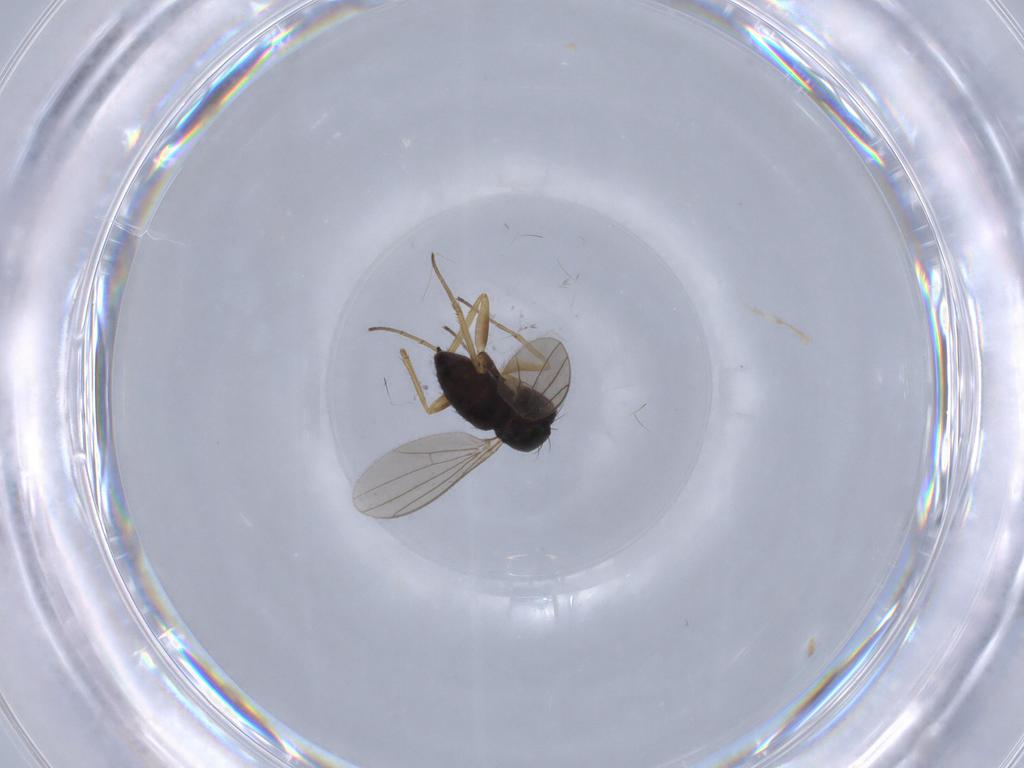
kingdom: Animalia
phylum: Arthropoda
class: Insecta
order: Diptera
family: Dolichopodidae
